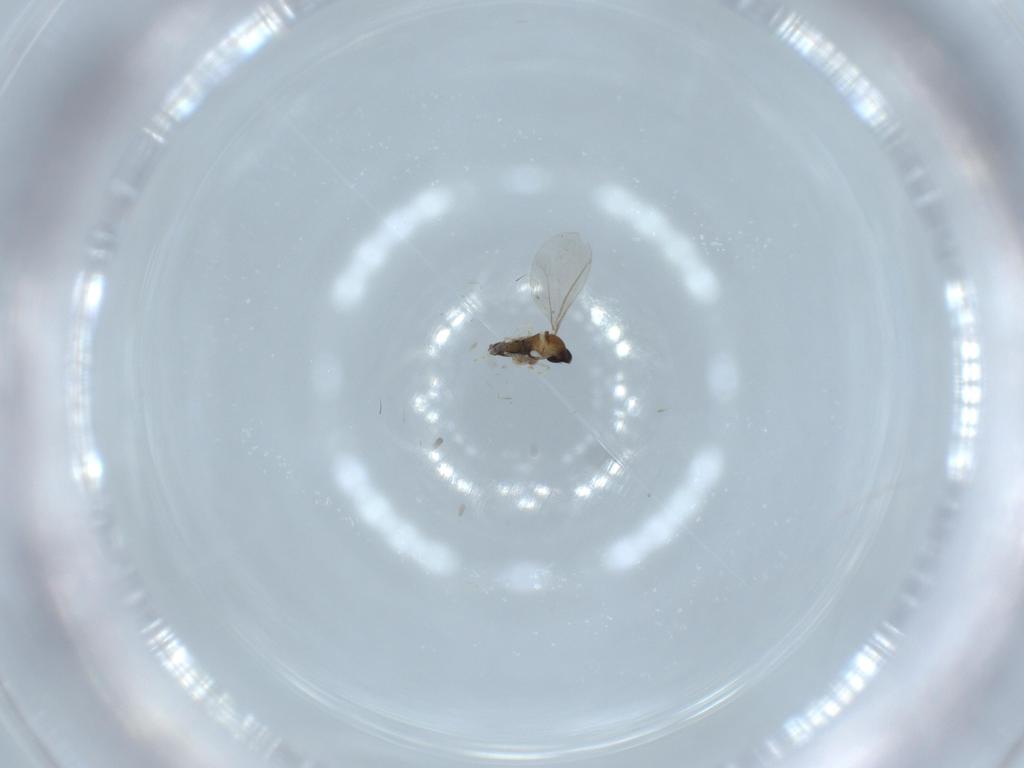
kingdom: Animalia
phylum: Arthropoda
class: Insecta
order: Diptera
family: Cecidomyiidae
